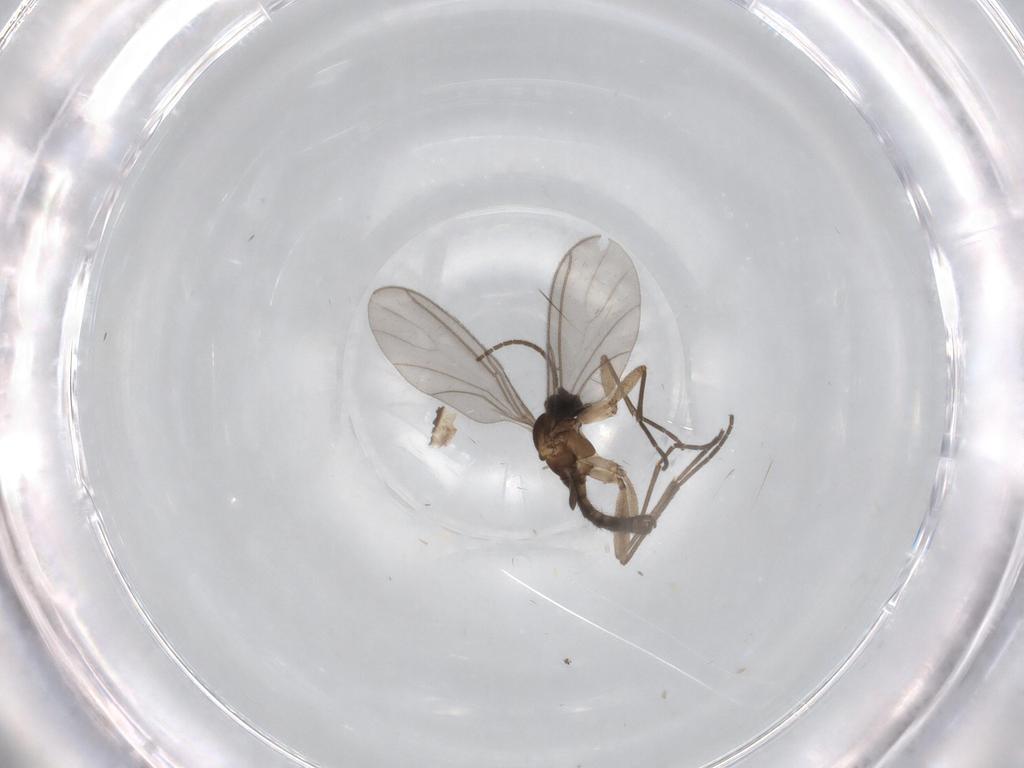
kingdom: Animalia
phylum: Arthropoda
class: Insecta
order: Diptera
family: Sciaridae
